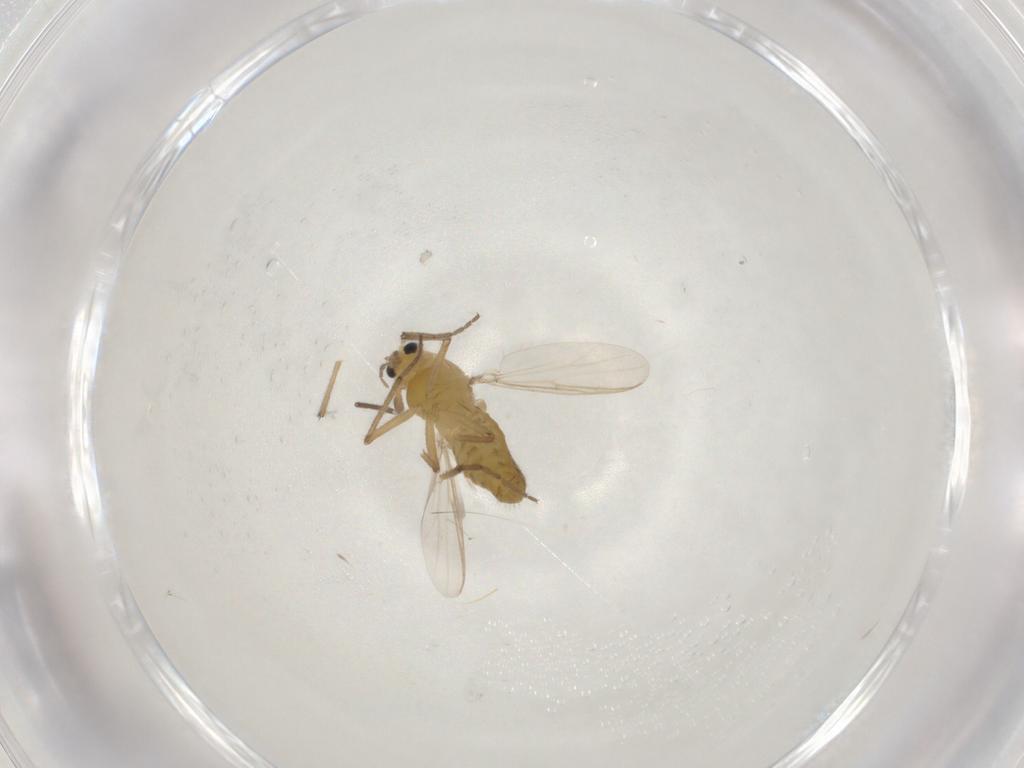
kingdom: Animalia
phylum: Arthropoda
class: Insecta
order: Diptera
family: Chironomidae
